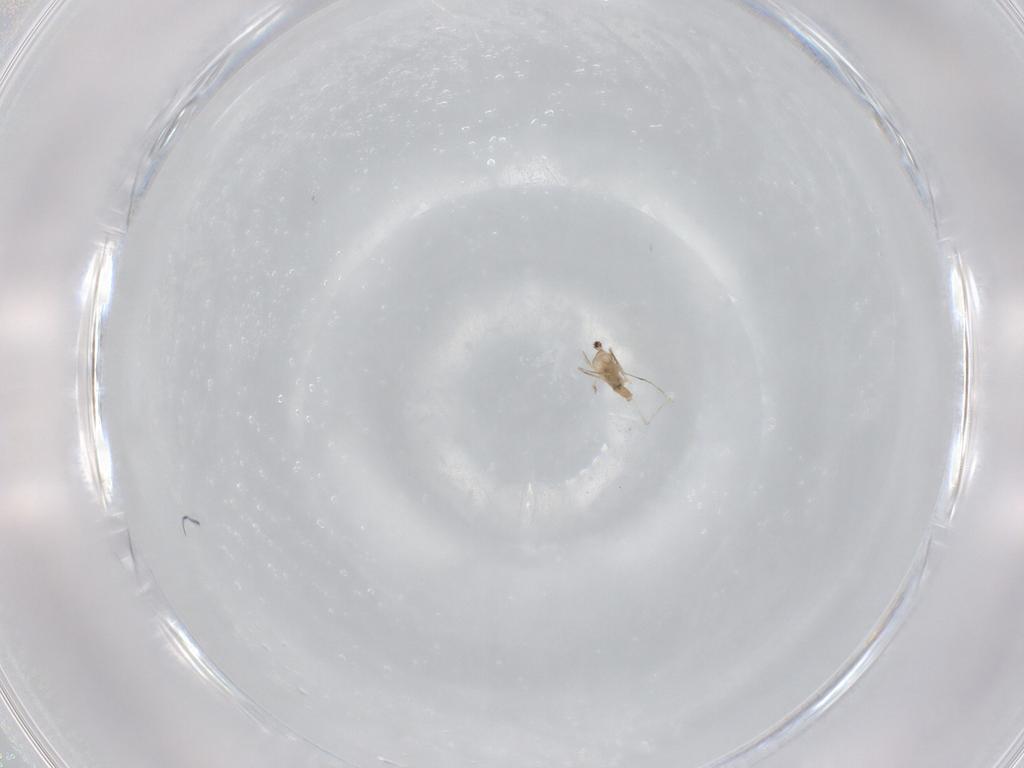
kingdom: Animalia
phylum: Arthropoda
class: Insecta
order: Diptera
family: Cecidomyiidae
